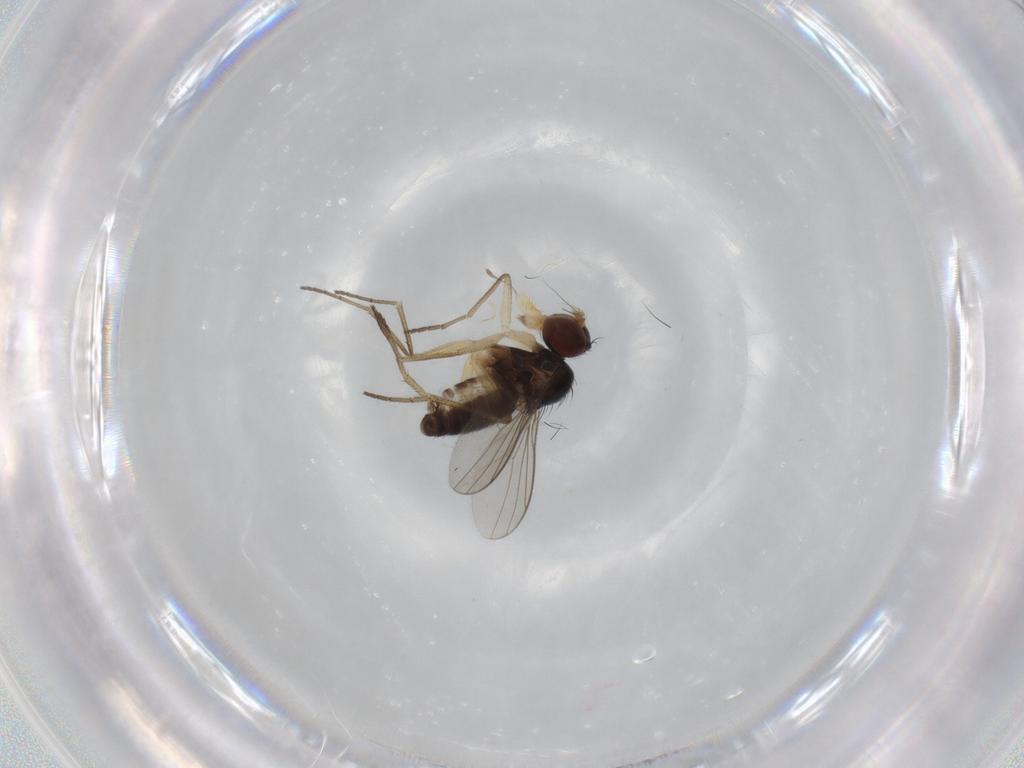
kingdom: Animalia
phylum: Arthropoda
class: Insecta
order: Diptera
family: Dolichopodidae
